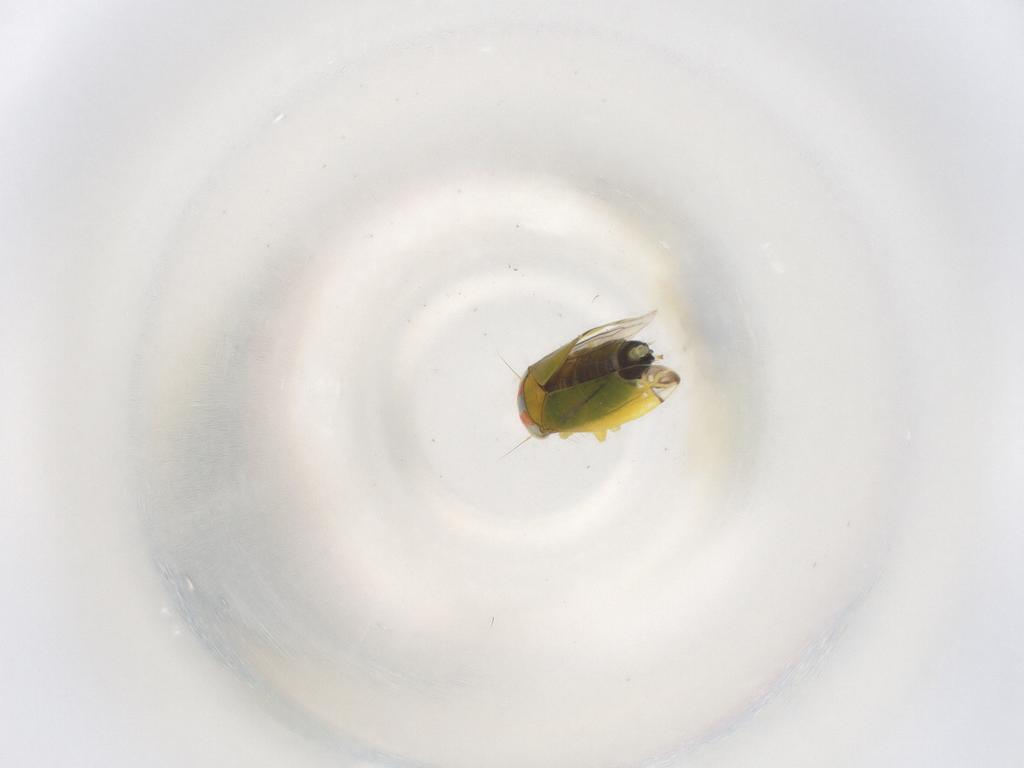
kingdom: Animalia
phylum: Arthropoda
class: Insecta
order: Hemiptera
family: Cicadellidae
